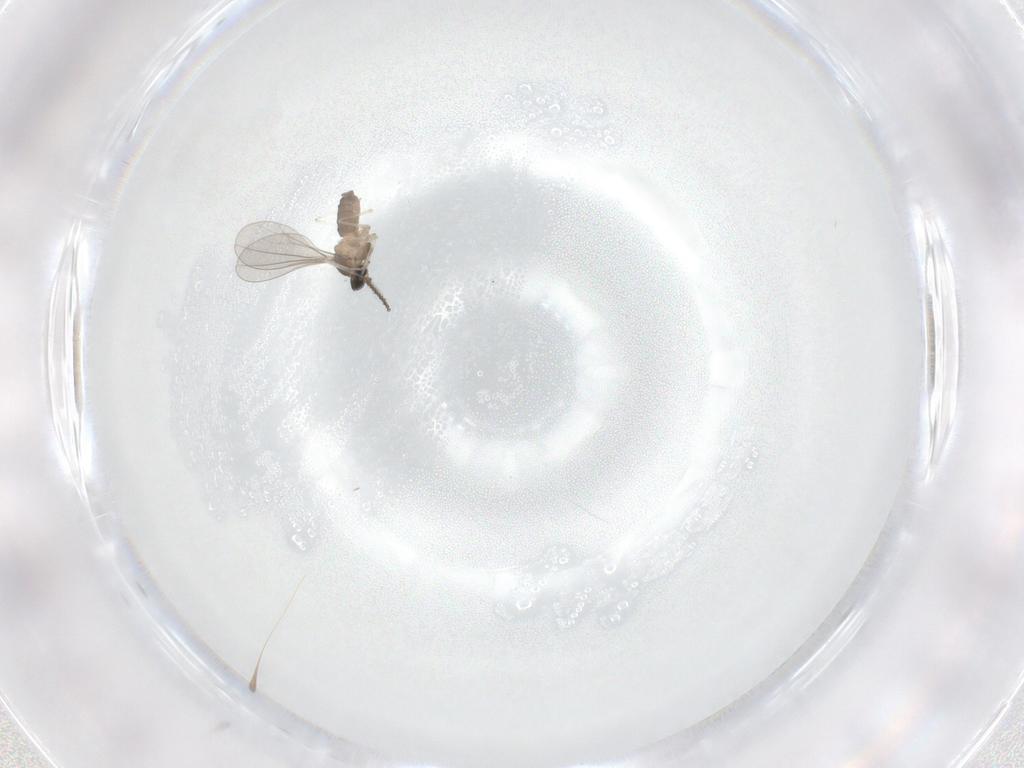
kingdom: Animalia
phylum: Arthropoda
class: Insecta
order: Diptera
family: Cecidomyiidae
